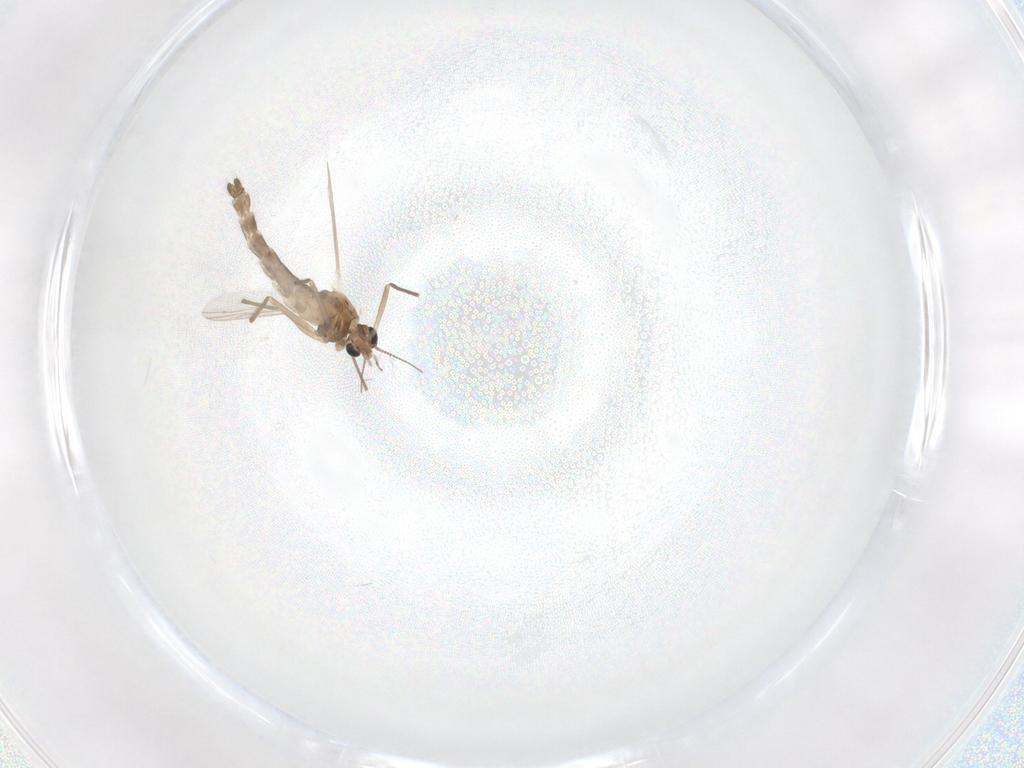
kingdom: Animalia
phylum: Arthropoda
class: Insecta
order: Diptera
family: Chironomidae
